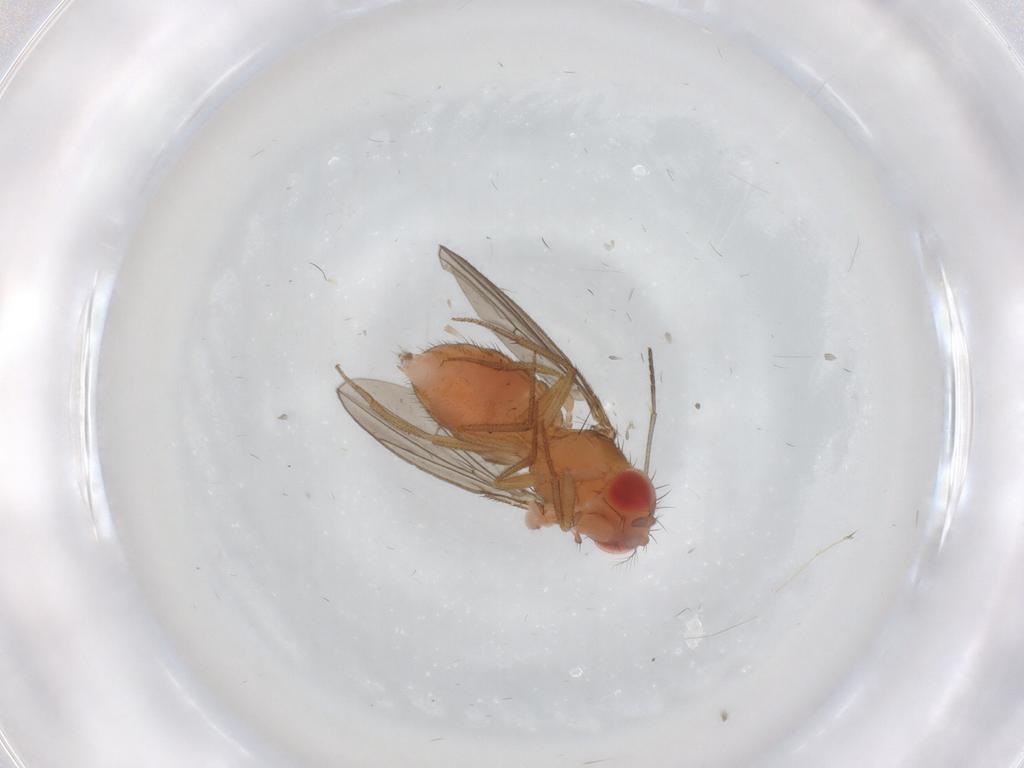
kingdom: Animalia
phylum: Arthropoda
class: Insecta
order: Diptera
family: Drosophilidae
